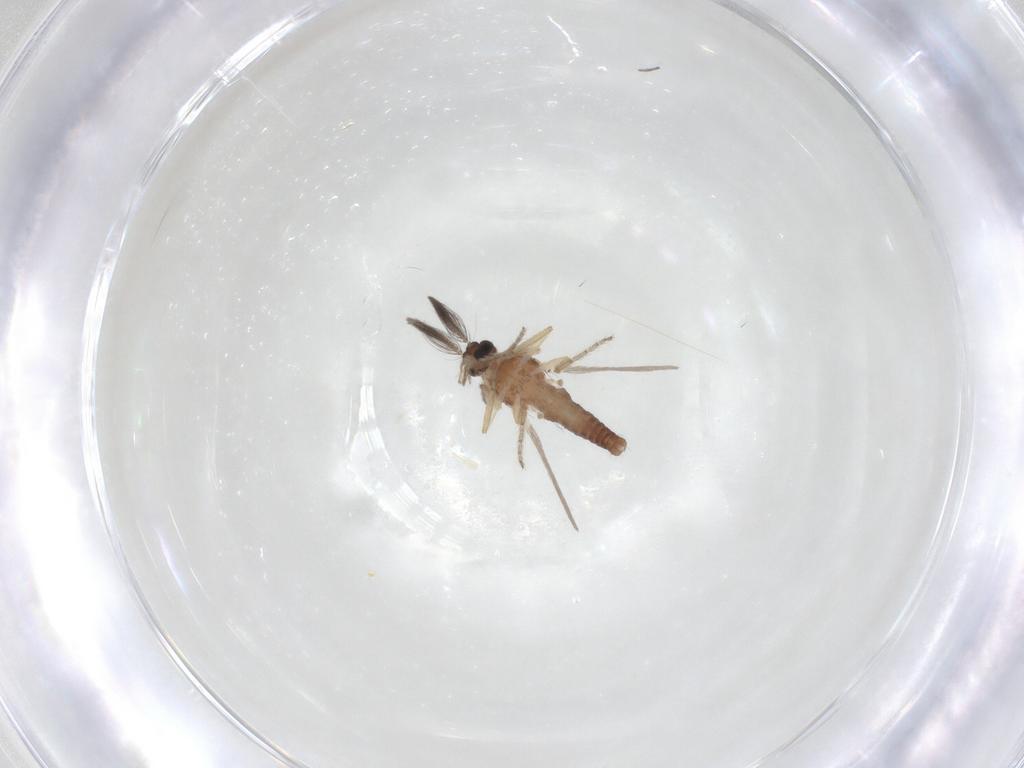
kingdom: Animalia
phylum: Arthropoda
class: Insecta
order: Diptera
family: Ceratopogonidae
